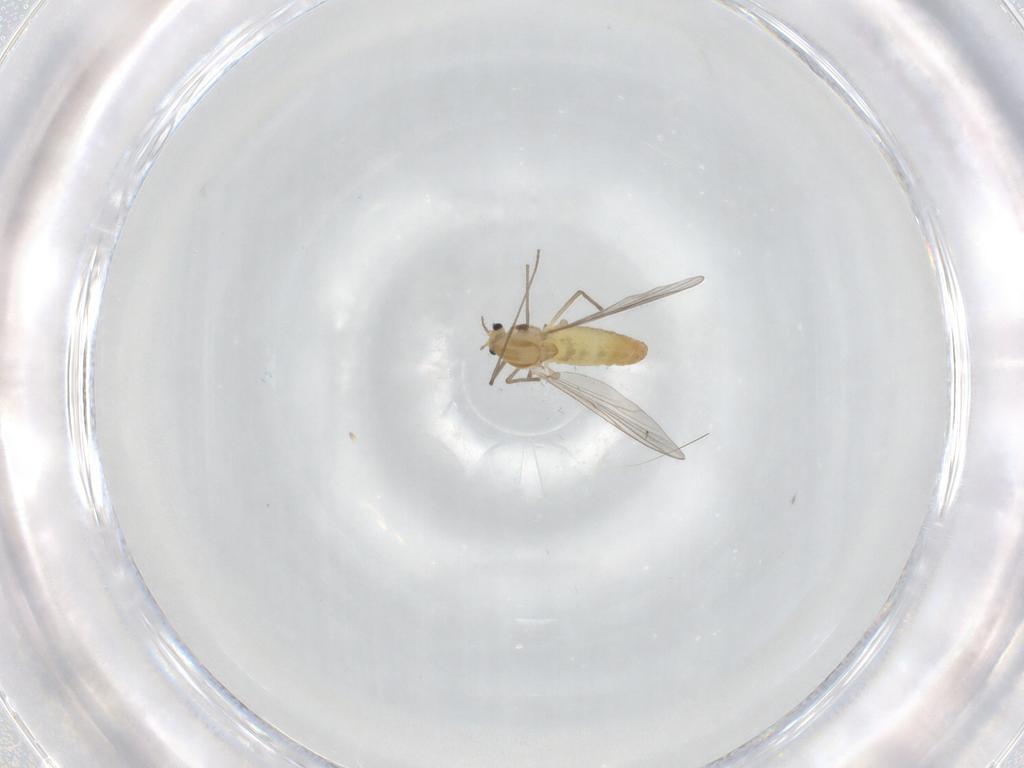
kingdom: Animalia
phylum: Arthropoda
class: Insecta
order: Diptera
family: Chironomidae
